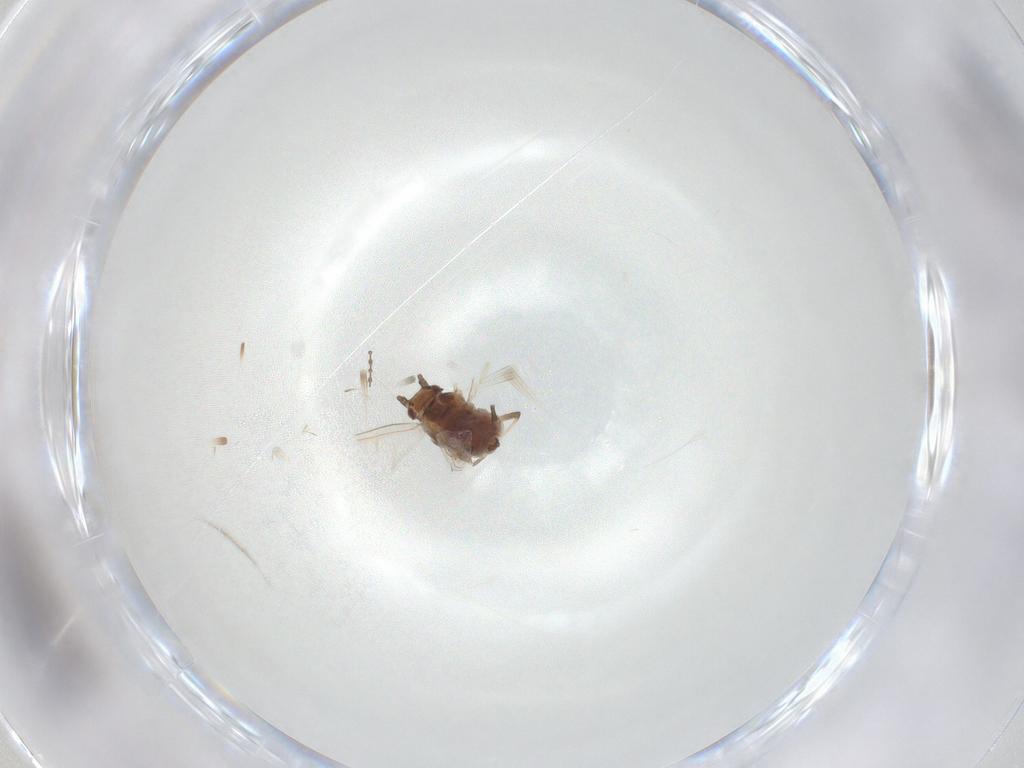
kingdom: Animalia
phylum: Arthropoda
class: Insecta
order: Hemiptera
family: Aphididae
